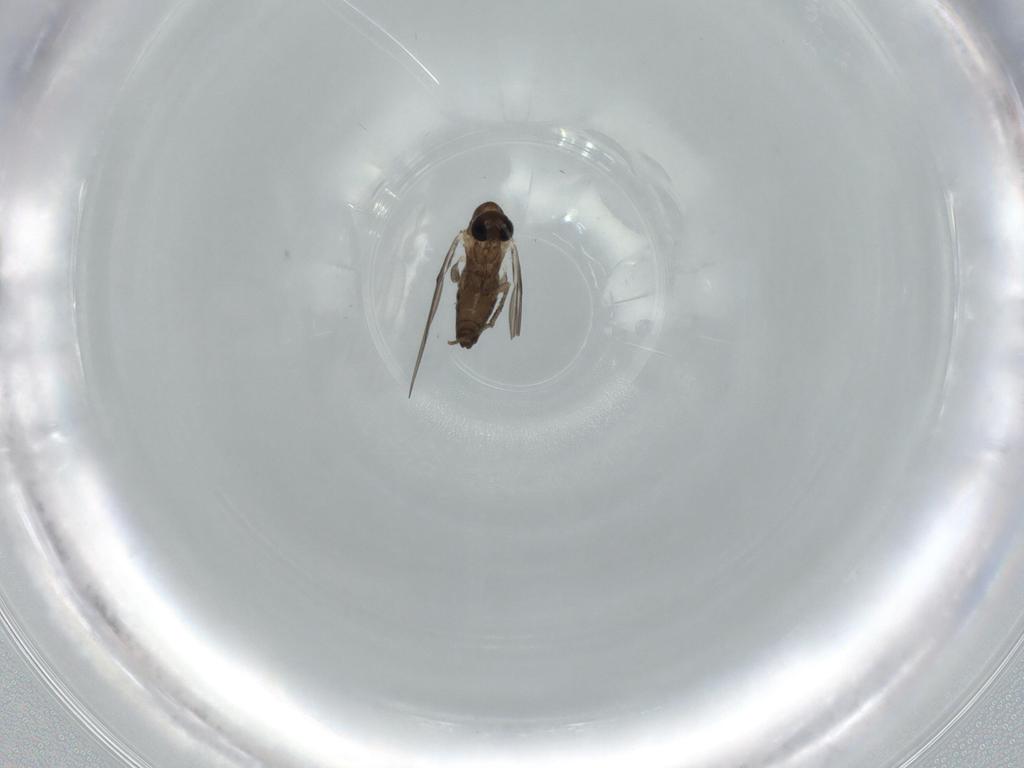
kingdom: Animalia
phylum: Arthropoda
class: Insecta
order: Diptera
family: Psychodidae
